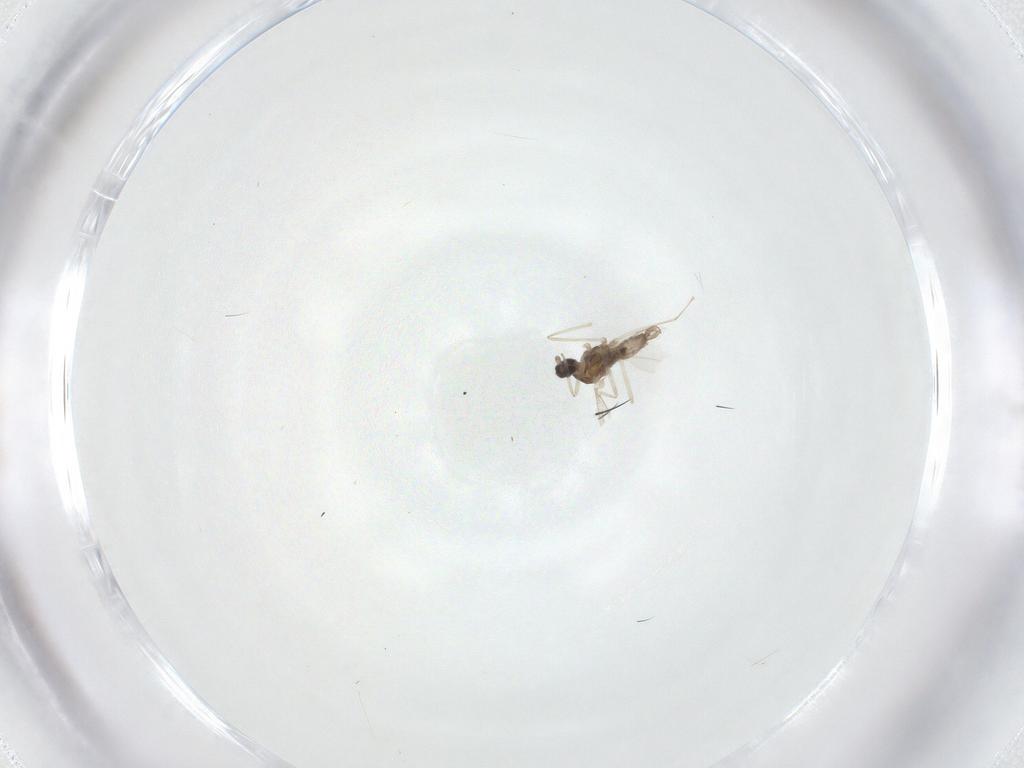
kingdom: Animalia
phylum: Arthropoda
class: Insecta
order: Diptera
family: Cecidomyiidae
